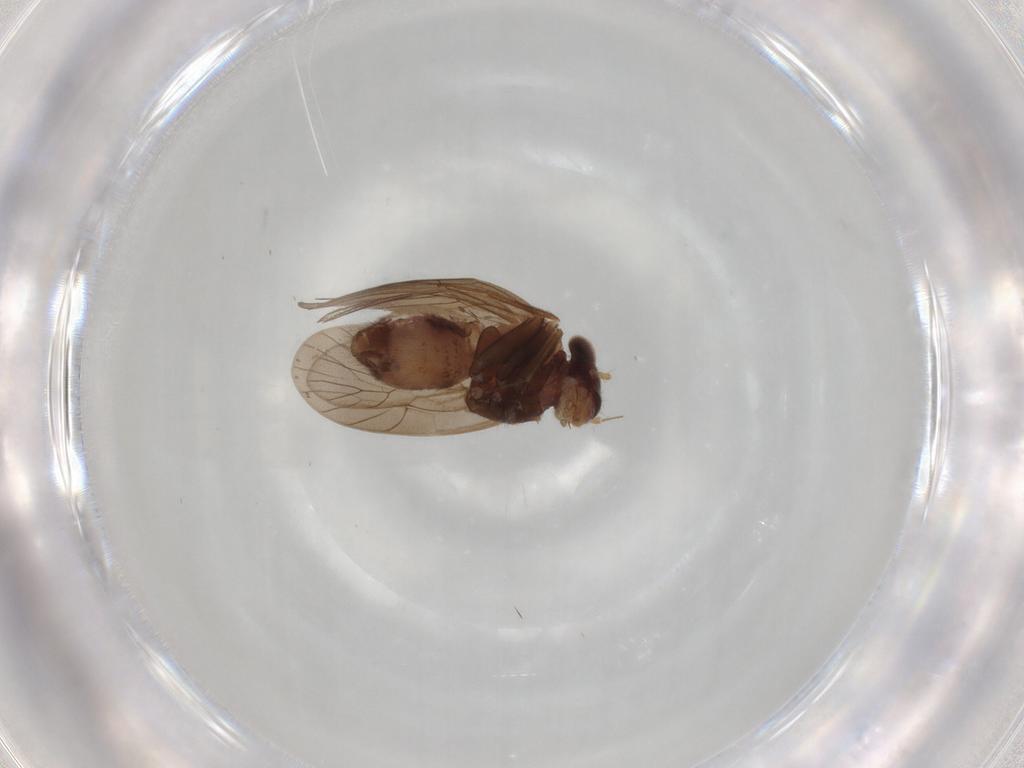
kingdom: Animalia
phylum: Arthropoda
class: Insecta
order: Psocodea
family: Lepidopsocidae
